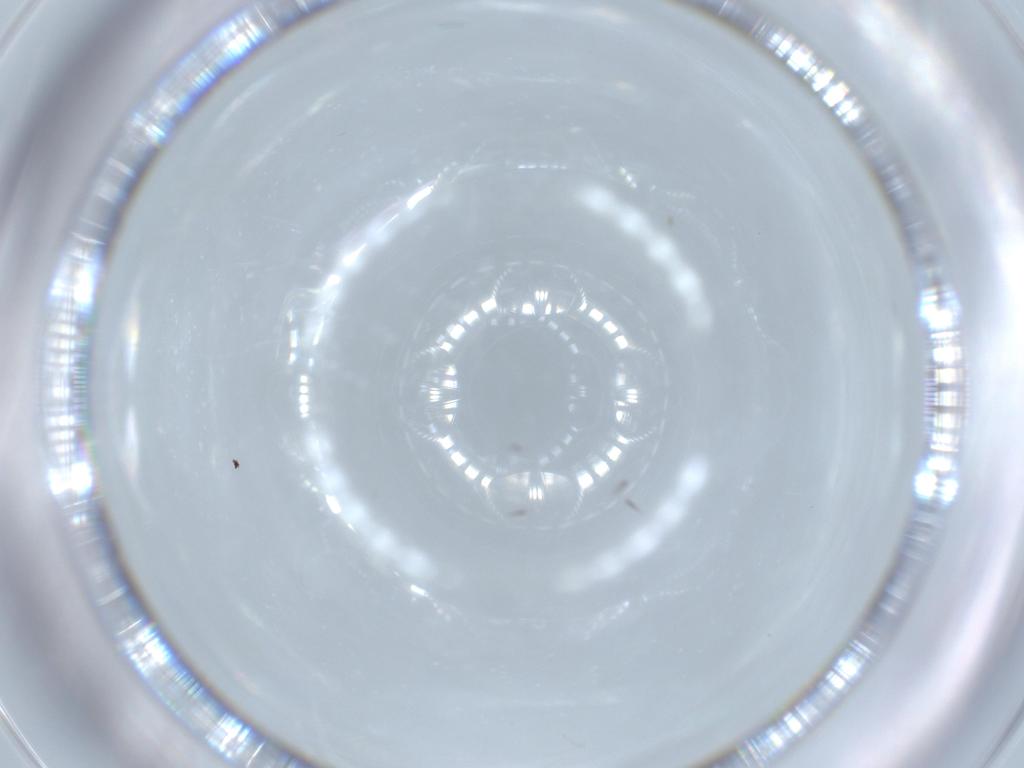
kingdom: Animalia
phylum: Arthropoda
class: Insecta
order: Hymenoptera
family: Trichogrammatidae
